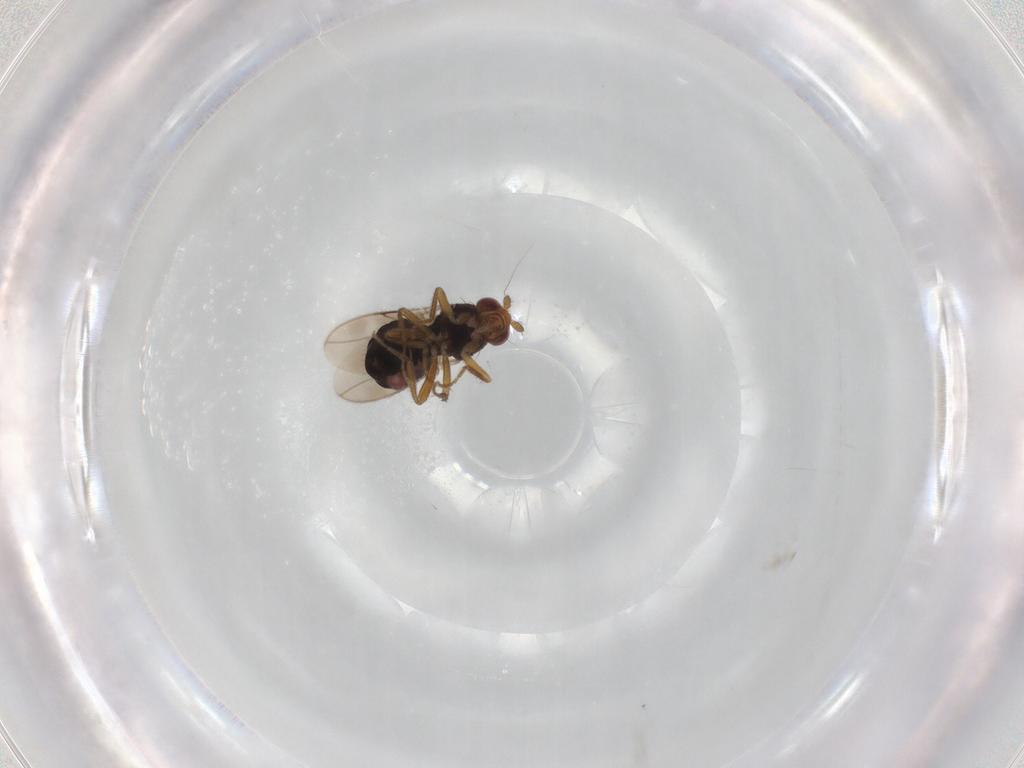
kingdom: Animalia
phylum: Arthropoda
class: Insecta
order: Diptera
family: Sphaeroceridae
